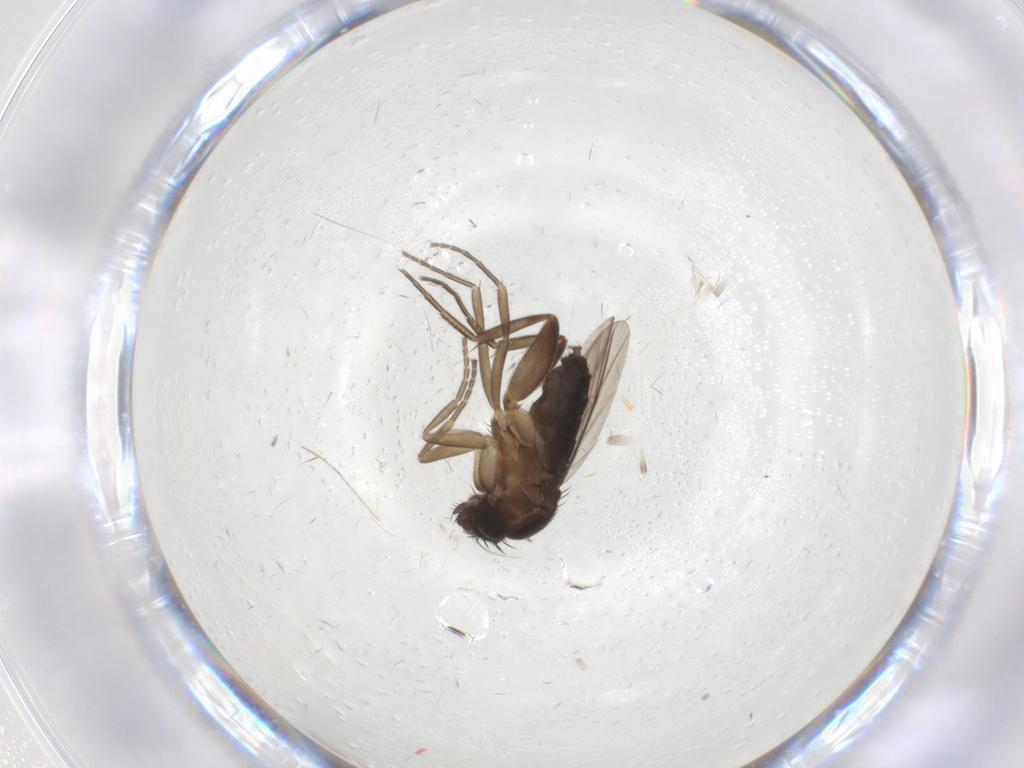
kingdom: Animalia
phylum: Arthropoda
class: Insecta
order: Diptera
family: Phoridae
